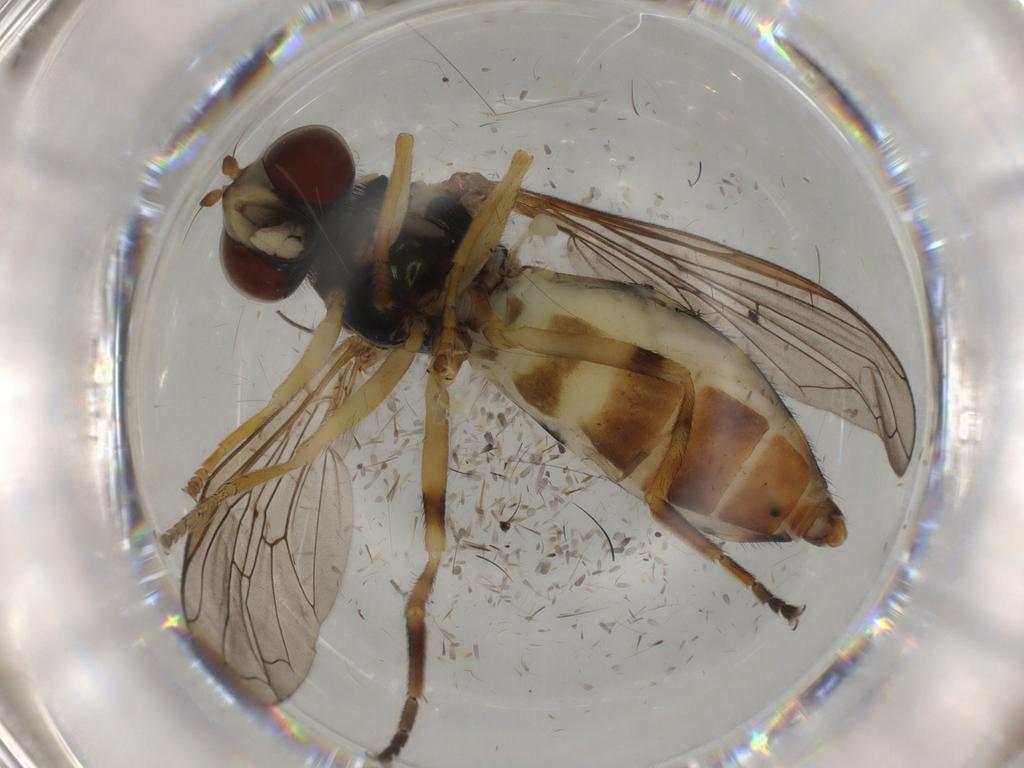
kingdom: Animalia
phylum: Arthropoda
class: Insecta
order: Diptera
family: Syrphidae
